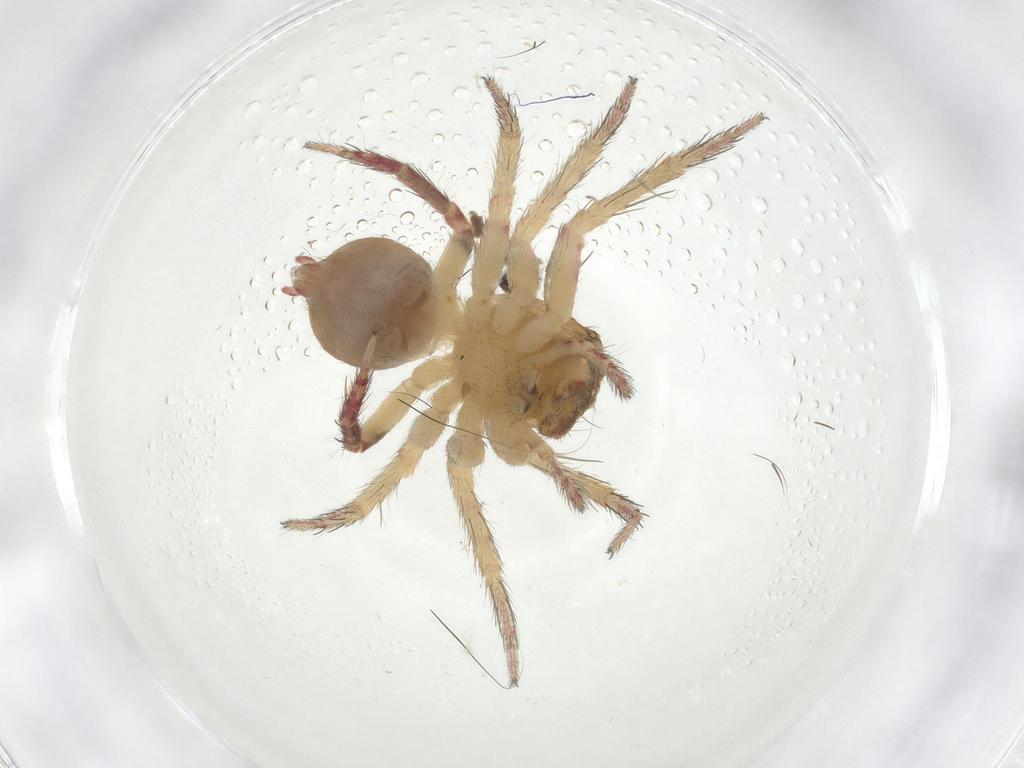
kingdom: Animalia
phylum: Arthropoda
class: Arachnida
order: Araneae
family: Oxyopidae
